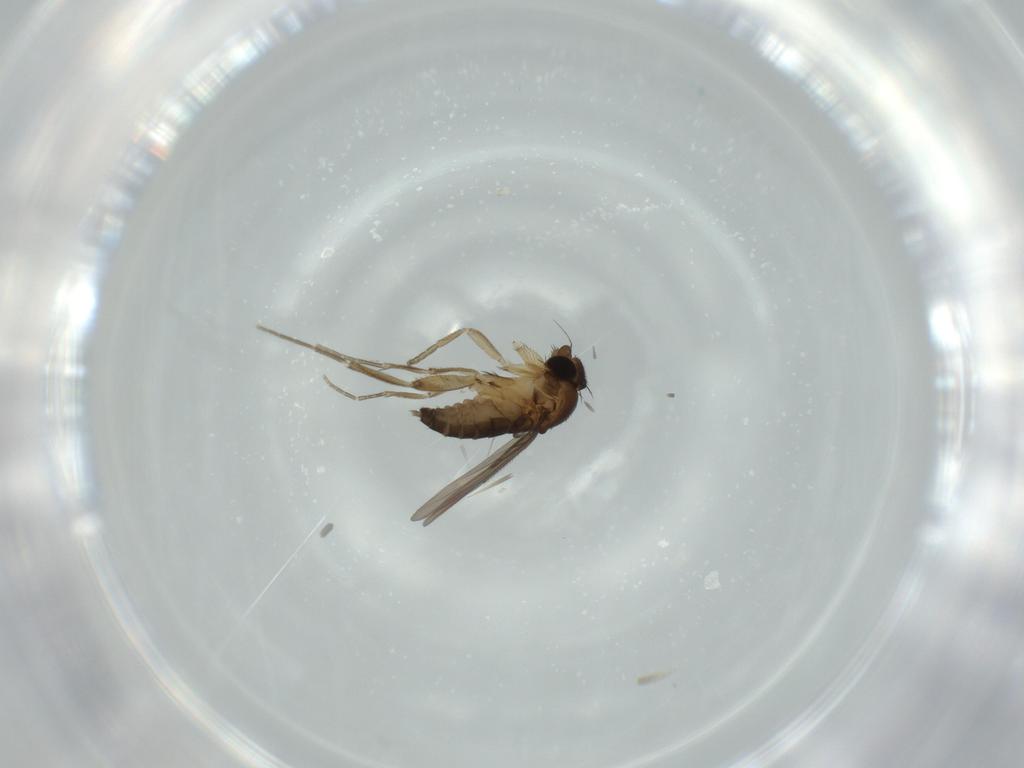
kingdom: Animalia
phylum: Arthropoda
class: Insecta
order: Diptera
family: Phoridae
